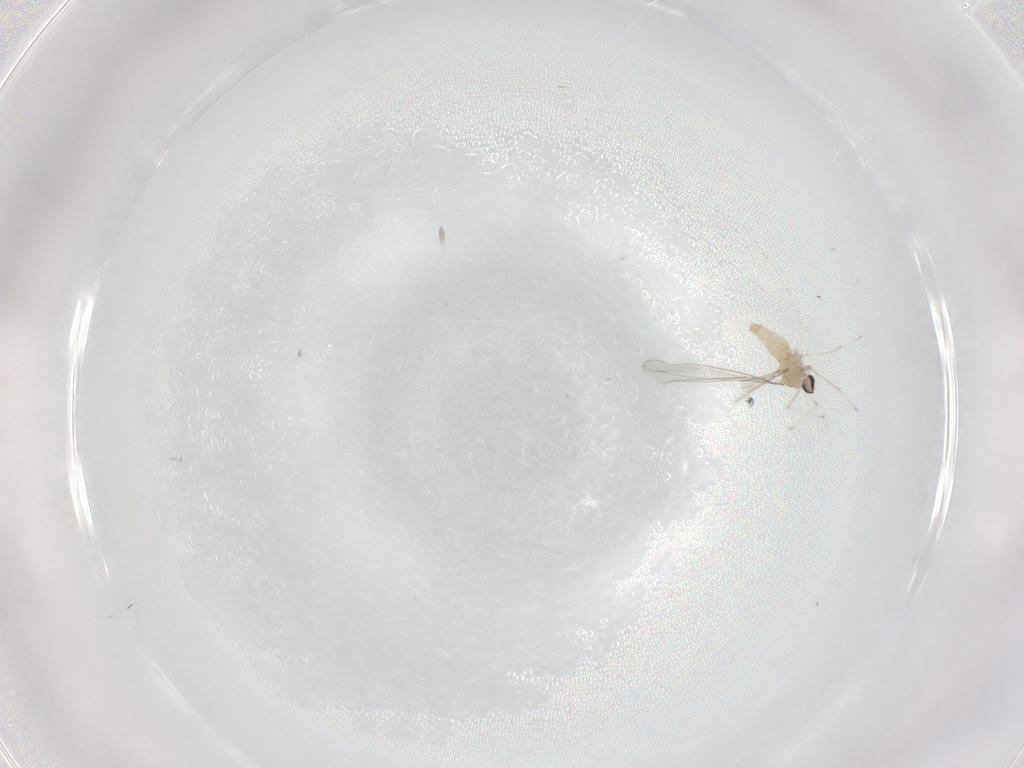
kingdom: Animalia
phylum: Arthropoda
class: Insecta
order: Diptera
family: Cecidomyiidae
